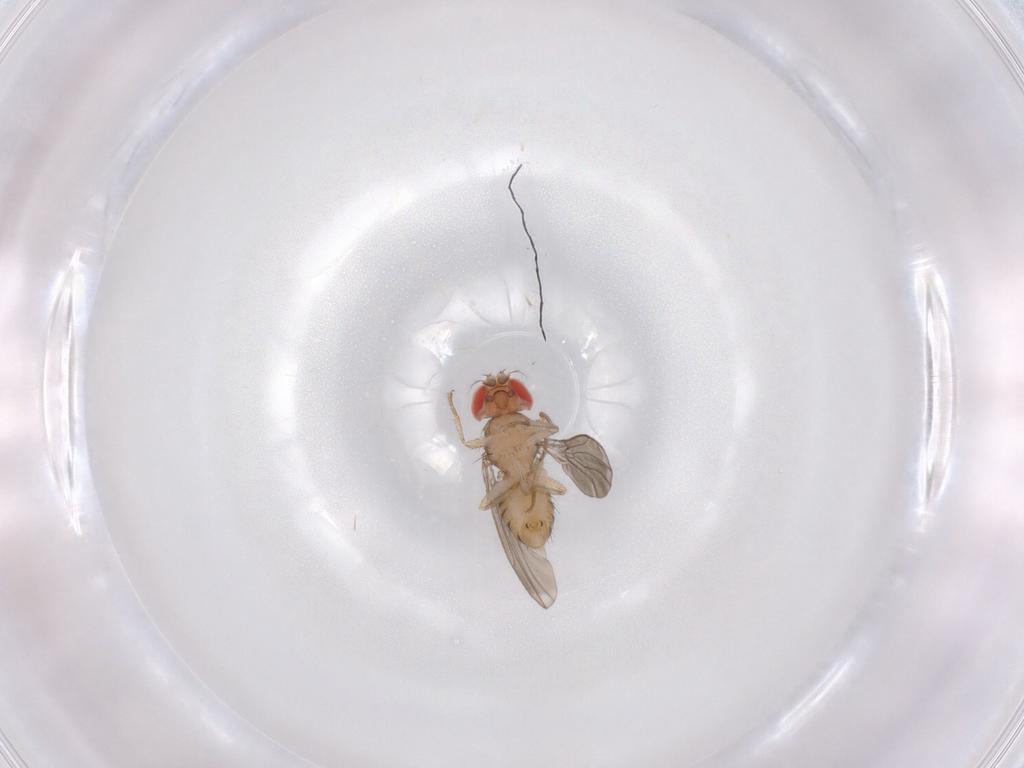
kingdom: Animalia
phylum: Arthropoda
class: Insecta
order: Diptera
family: Drosophilidae
